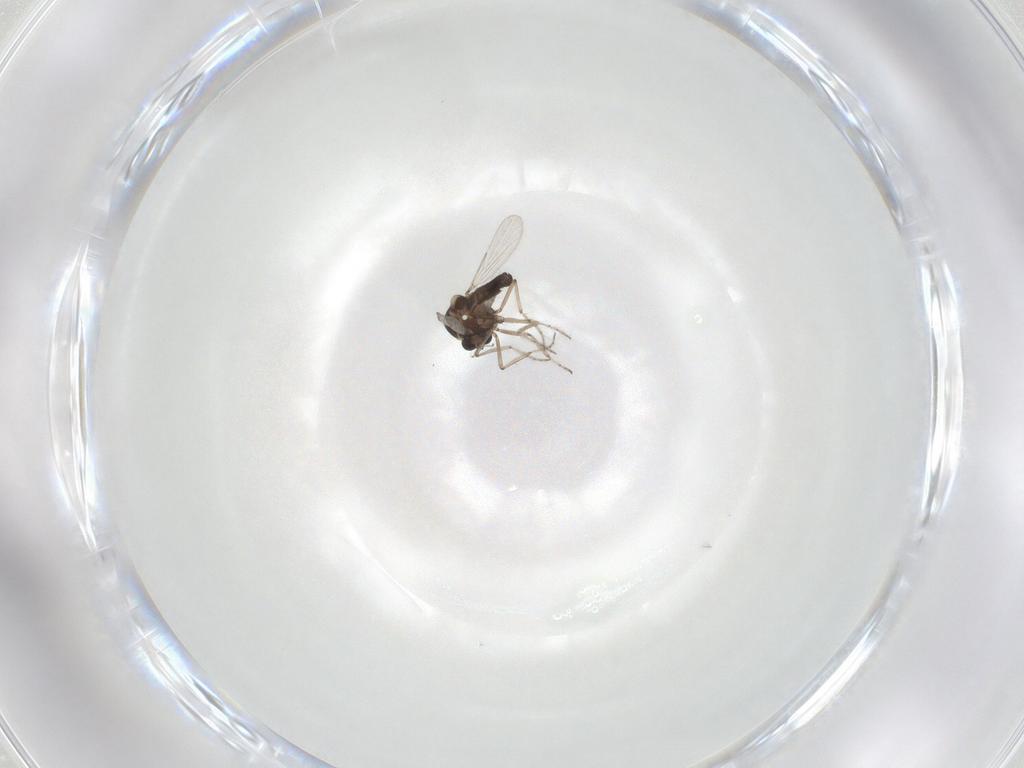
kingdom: Animalia
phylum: Arthropoda
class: Insecta
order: Diptera
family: Ceratopogonidae
